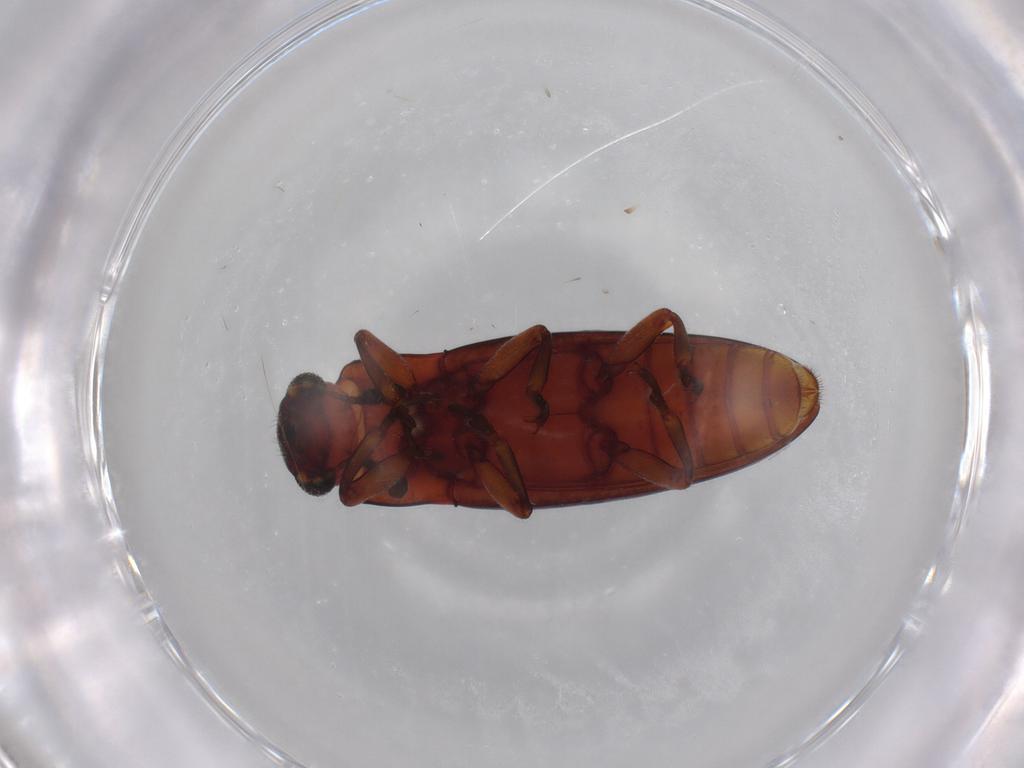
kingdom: Animalia
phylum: Arthropoda
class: Insecta
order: Coleoptera
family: Erotylidae
